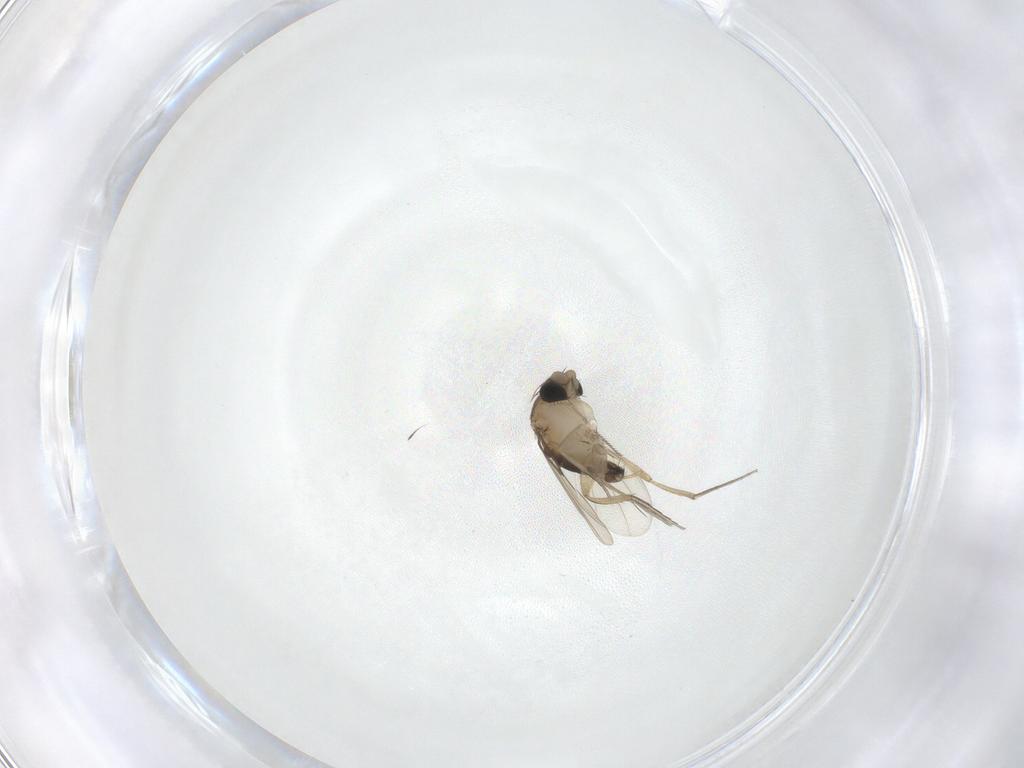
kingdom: Animalia
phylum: Arthropoda
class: Insecta
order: Diptera
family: Phoridae
